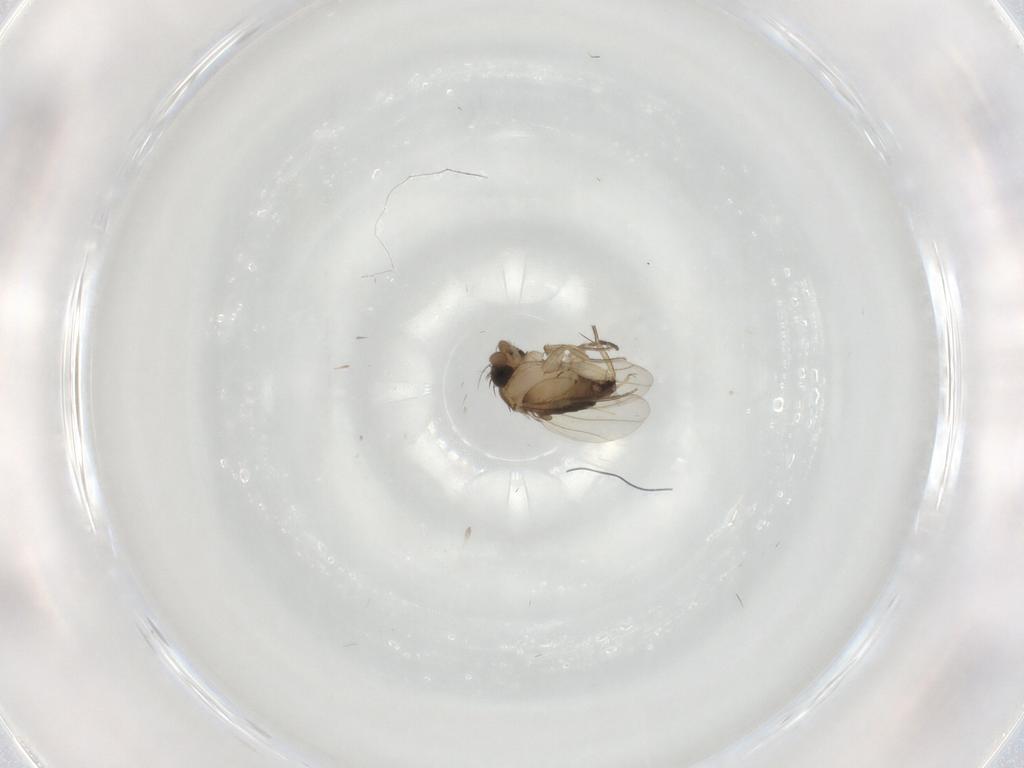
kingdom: Animalia
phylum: Arthropoda
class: Insecta
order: Diptera
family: Phoridae
